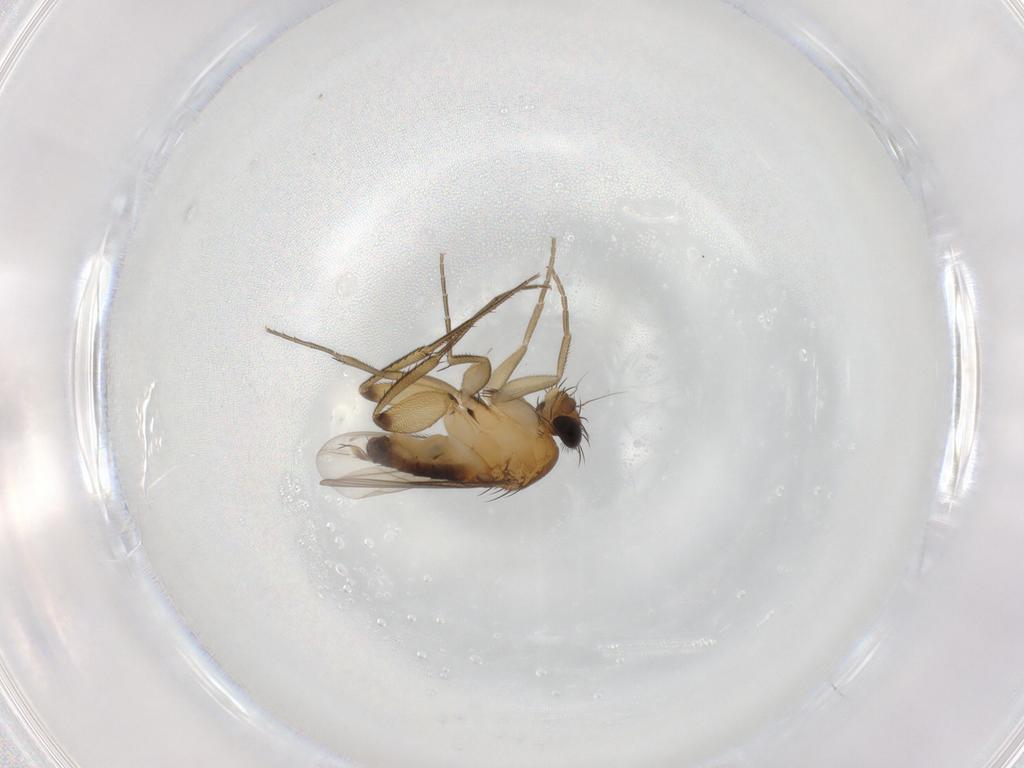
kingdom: Animalia
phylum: Arthropoda
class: Insecta
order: Diptera
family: Phoridae
